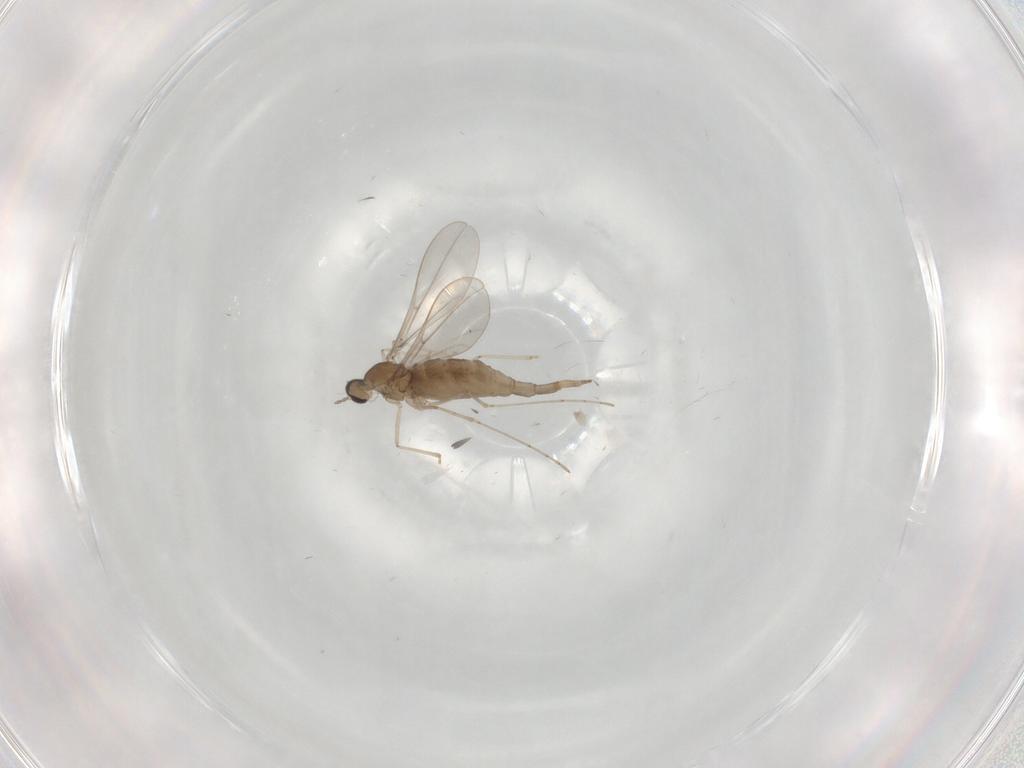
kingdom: Animalia
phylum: Arthropoda
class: Insecta
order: Diptera
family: Cecidomyiidae
